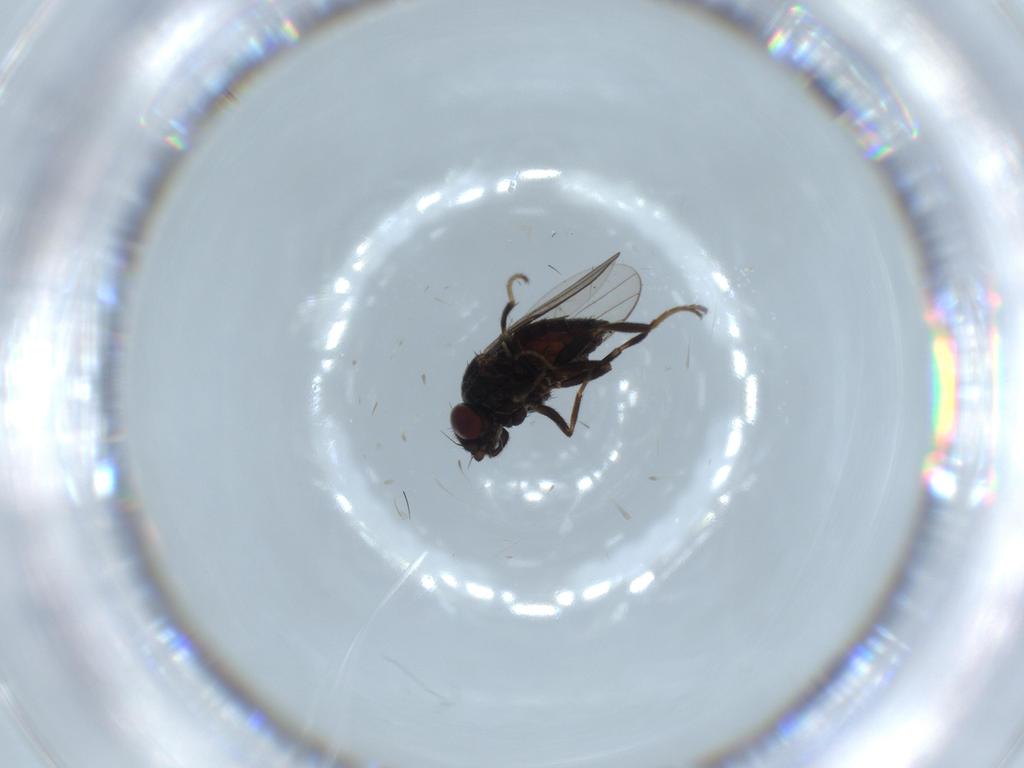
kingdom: Animalia
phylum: Arthropoda
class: Insecta
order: Diptera
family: Chloropidae
